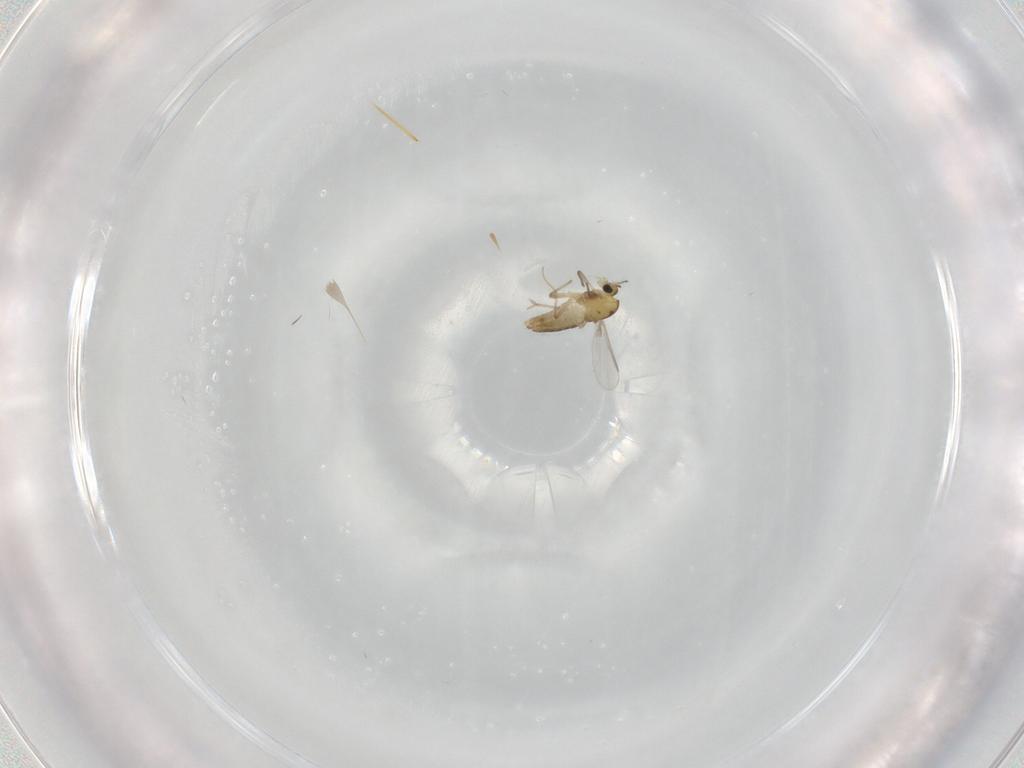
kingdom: Animalia
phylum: Arthropoda
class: Insecta
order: Diptera
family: Chironomidae
